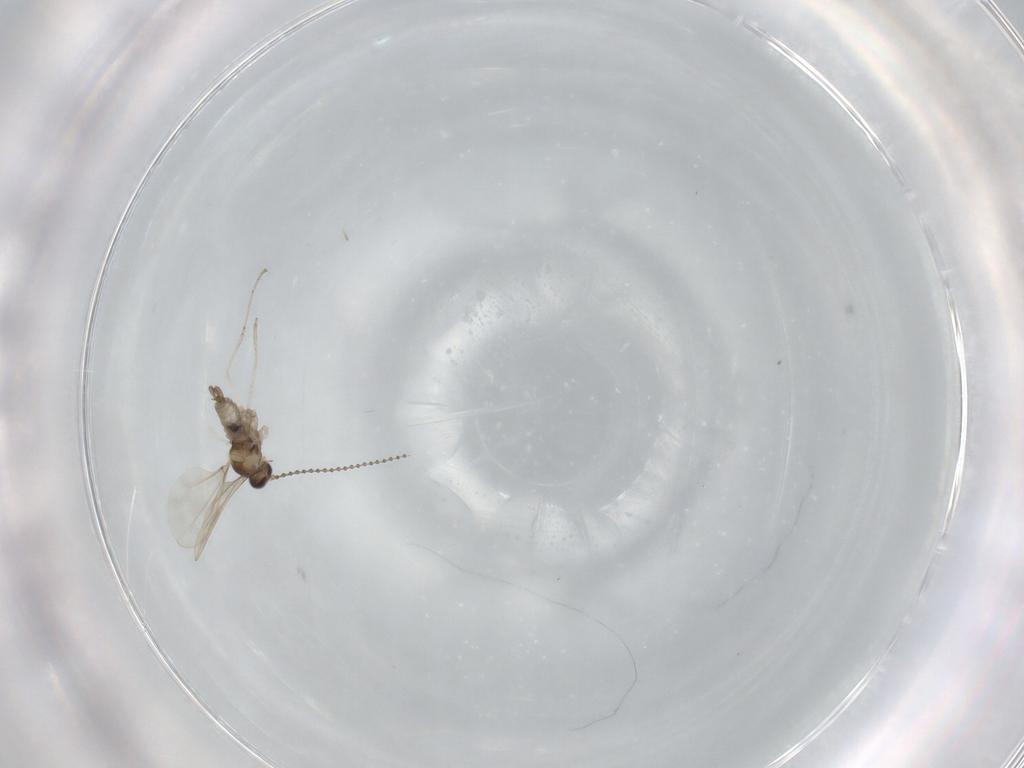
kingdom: Animalia
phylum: Arthropoda
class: Insecta
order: Diptera
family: Cecidomyiidae
